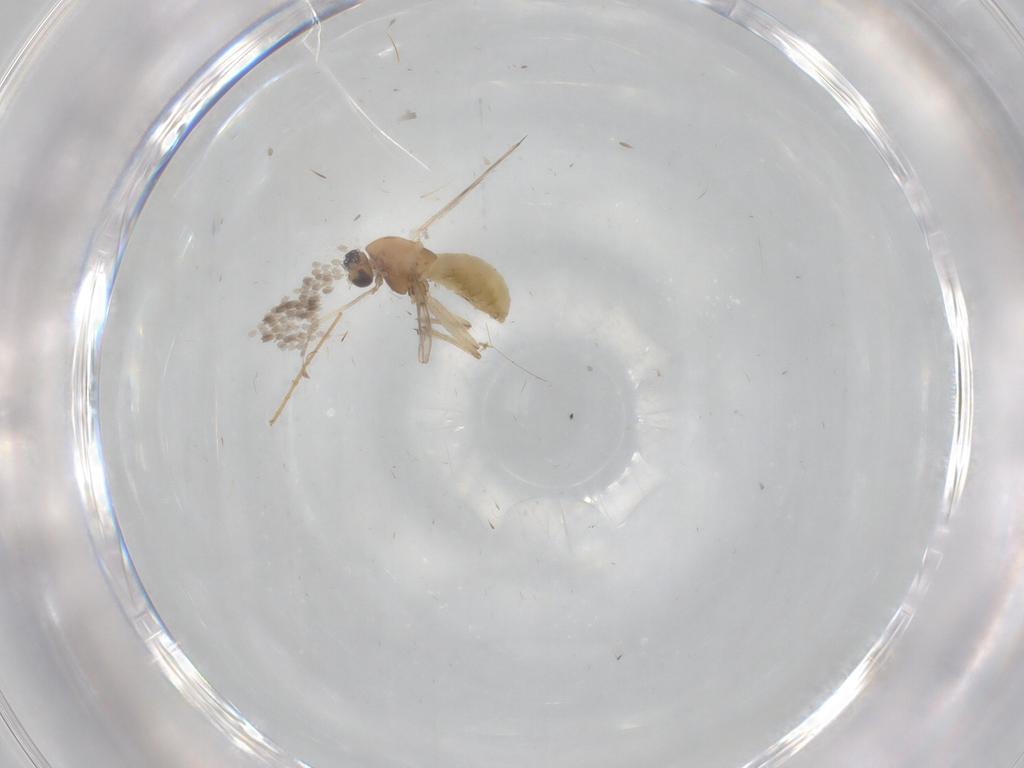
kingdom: Animalia
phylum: Arthropoda
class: Insecta
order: Diptera
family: Chironomidae
